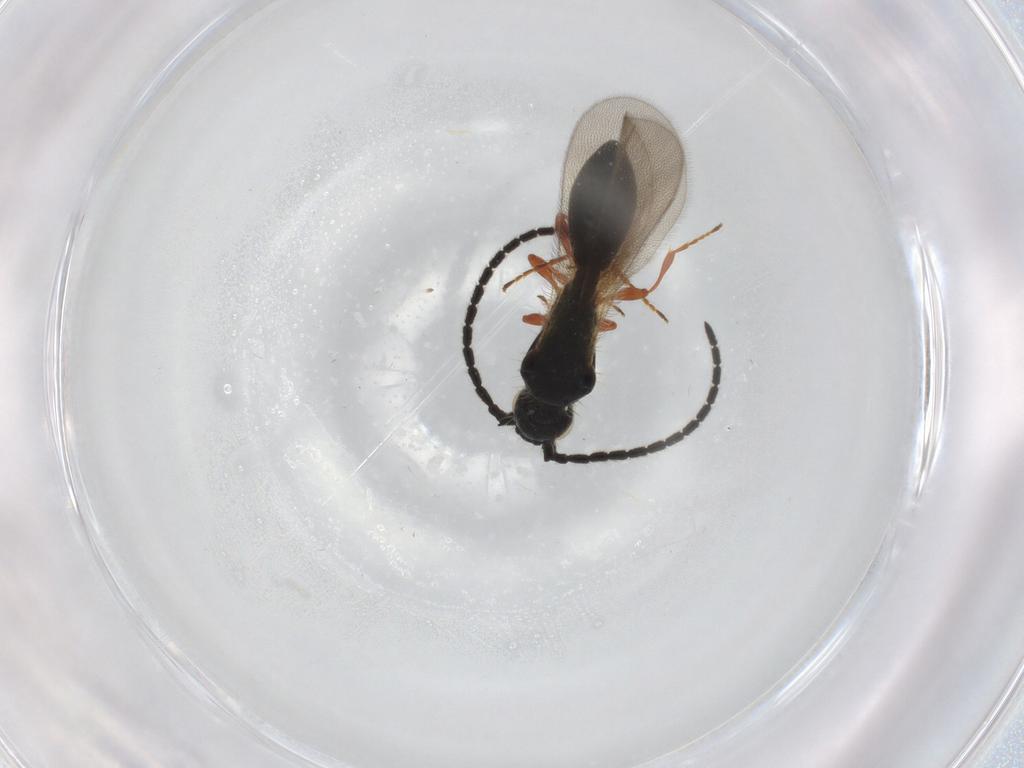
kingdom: Animalia
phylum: Arthropoda
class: Insecta
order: Hymenoptera
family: Diapriidae
